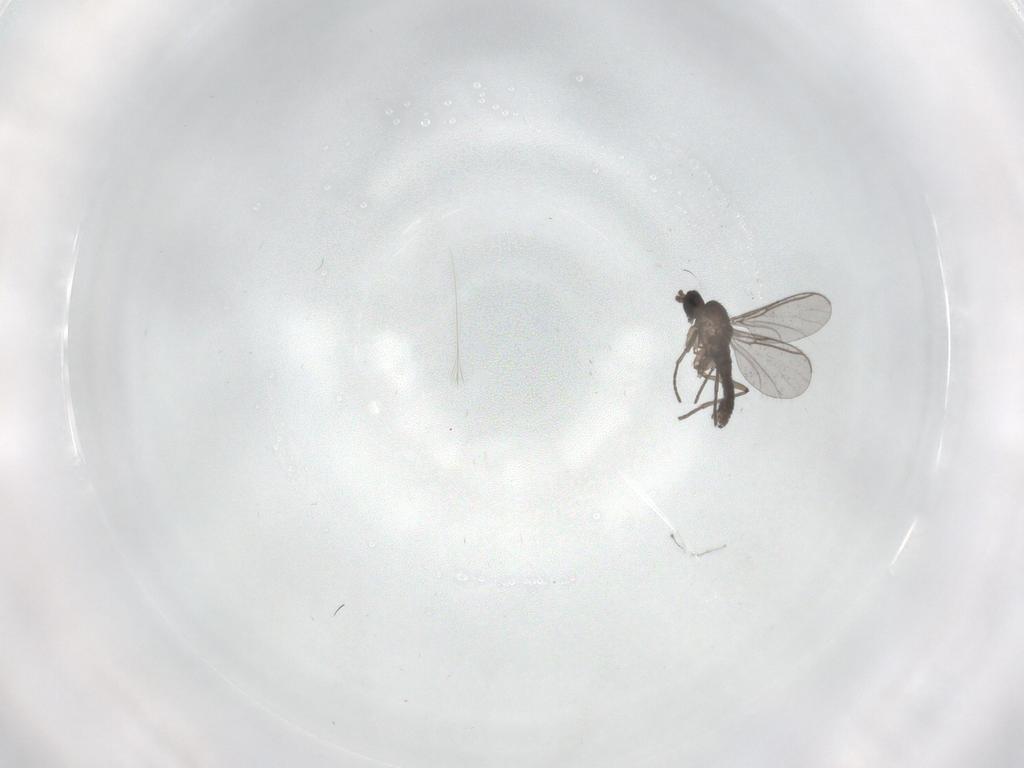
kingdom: Animalia
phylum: Arthropoda
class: Insecta
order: Diptera
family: Cecidomyiidae
